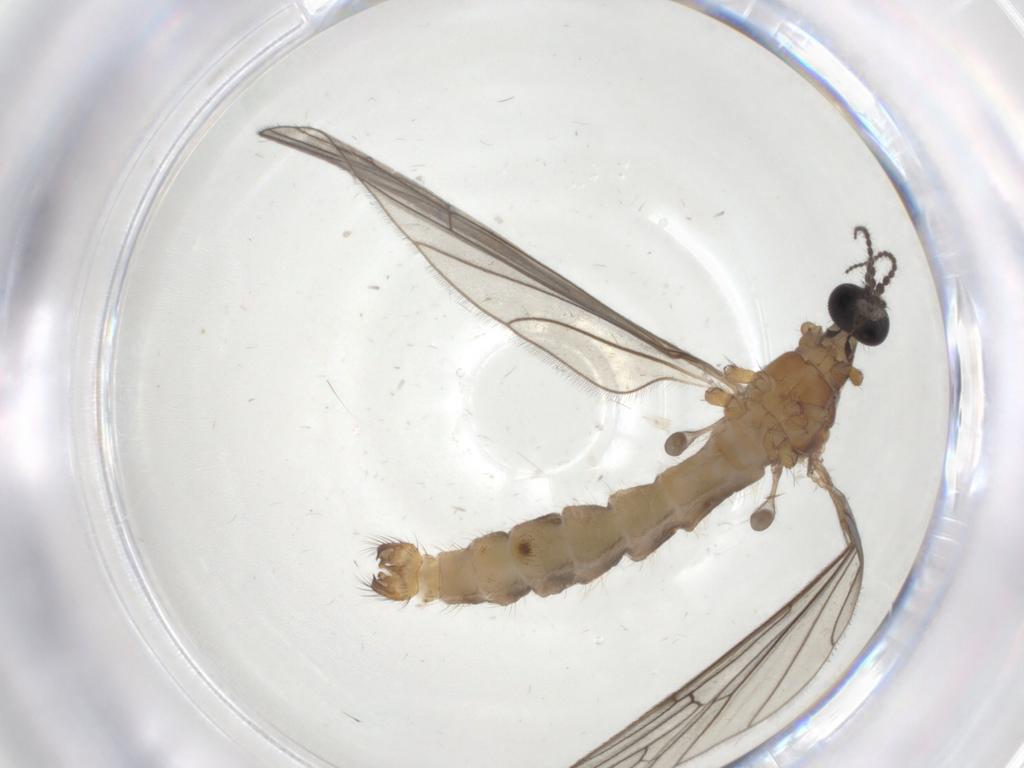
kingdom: Animalia
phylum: Arthropoda
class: Insecta
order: Diptera
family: Limoniidae
